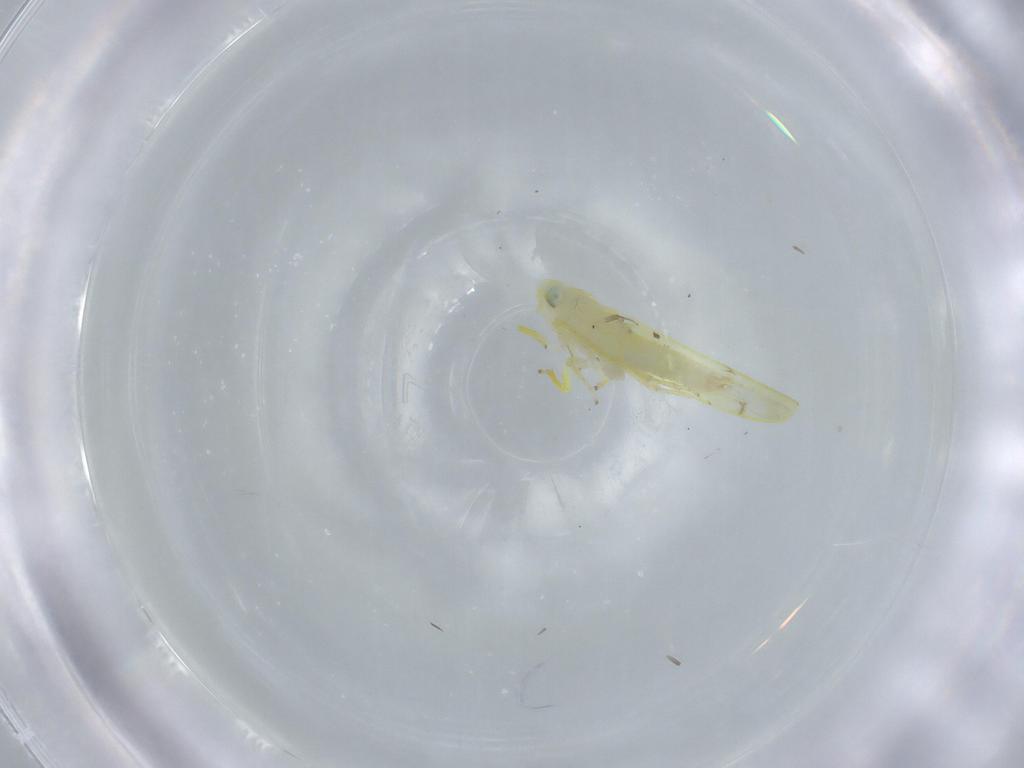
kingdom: Animalia
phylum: Arthropoda
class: Insecta
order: Hemiptera
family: Cicadellidae
